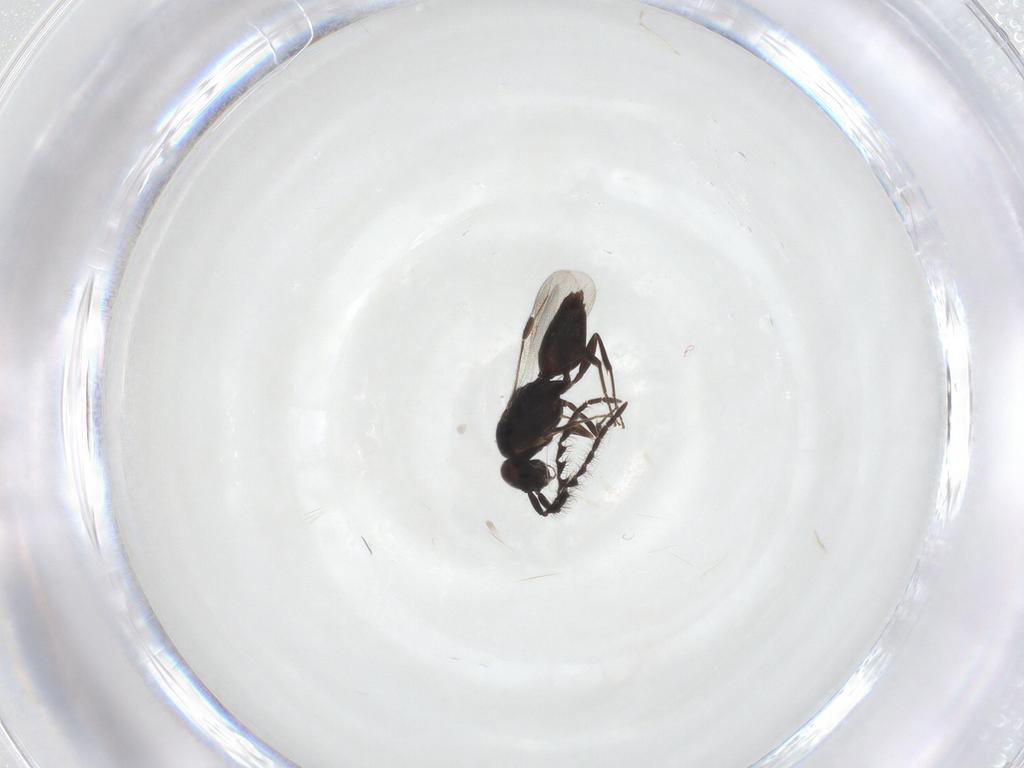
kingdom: Animalia
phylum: Arthropoda
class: Insecta
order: Hymenoptera
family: Megaspilidae
